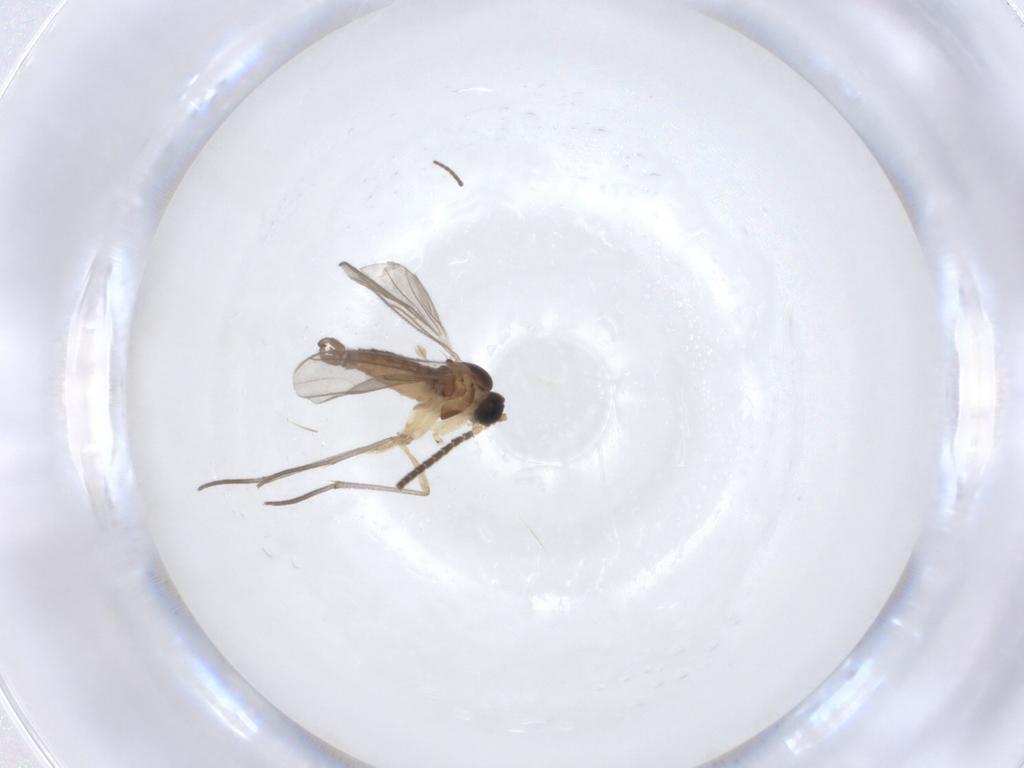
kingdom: Animalia
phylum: Arthropoda
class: Insecta
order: Diptera
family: Sciaridae
